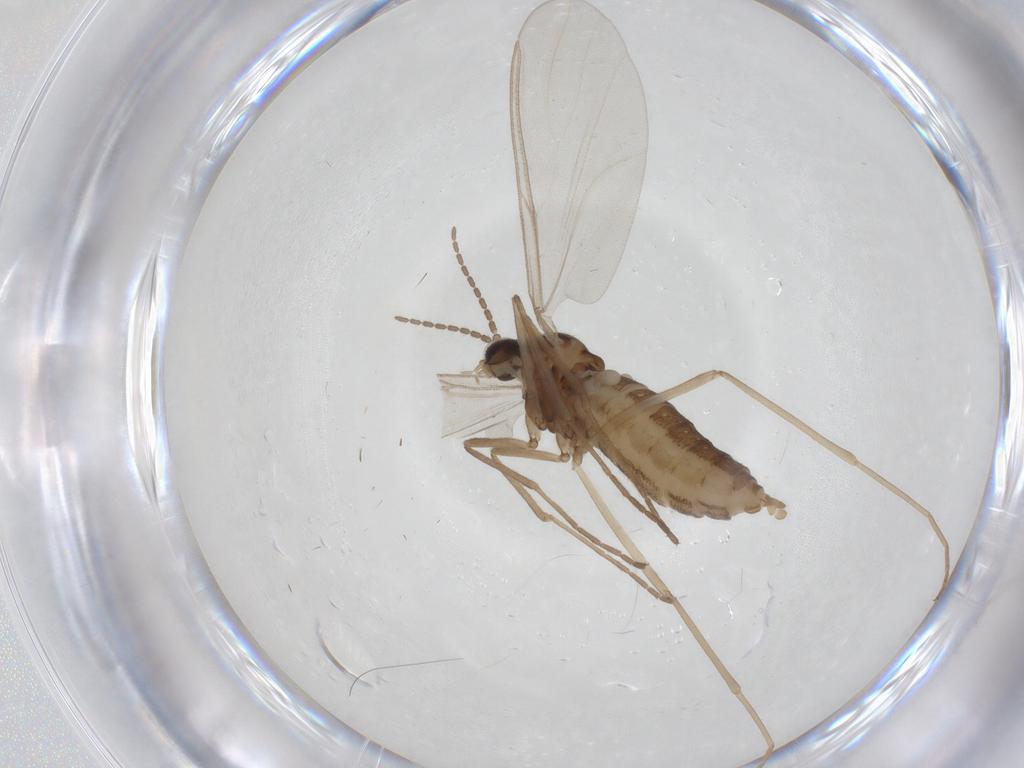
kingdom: Animalia
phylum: Arthropoda
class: Insecta
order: Diptera
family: Cecidomyiidae
